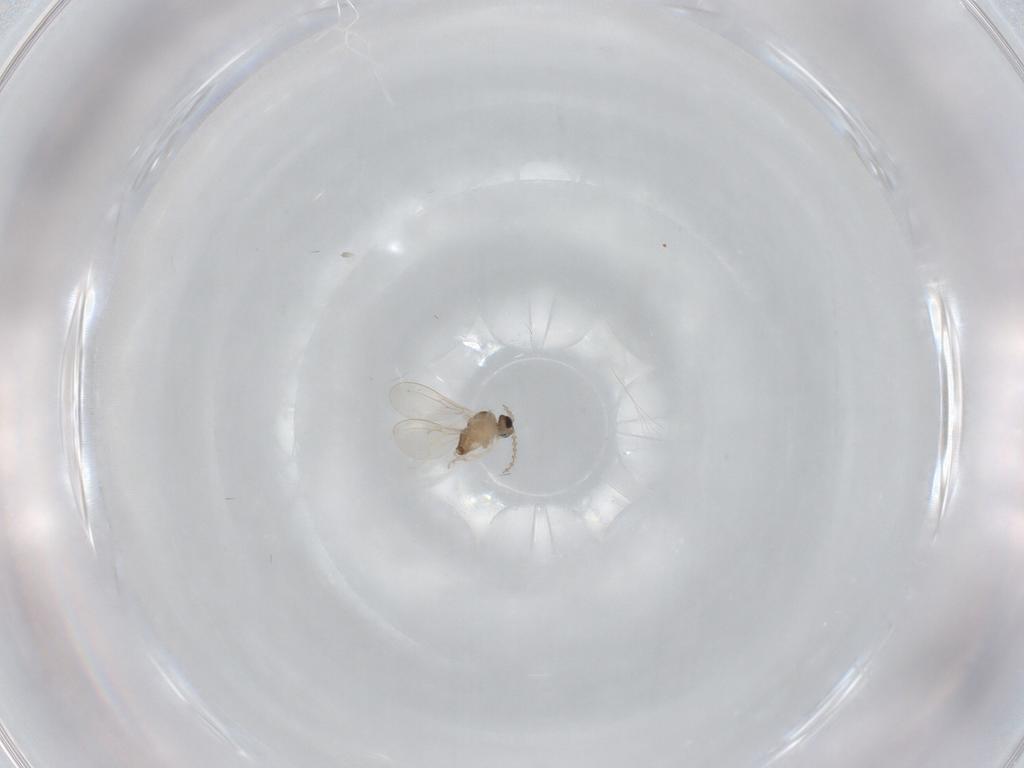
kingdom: Animalia
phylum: Arthropoda
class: Insecta
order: Diptera
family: Phoridae
